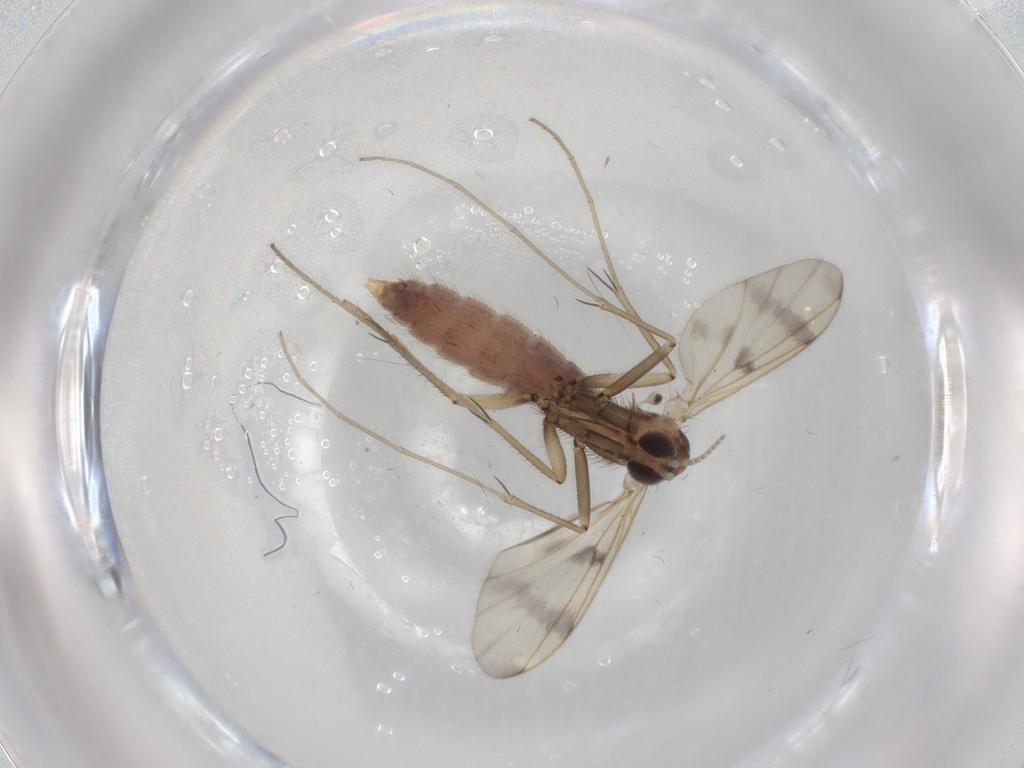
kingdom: Animalia
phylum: Arthropoda
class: Insecta
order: Diptera
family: Mycetophilidae
